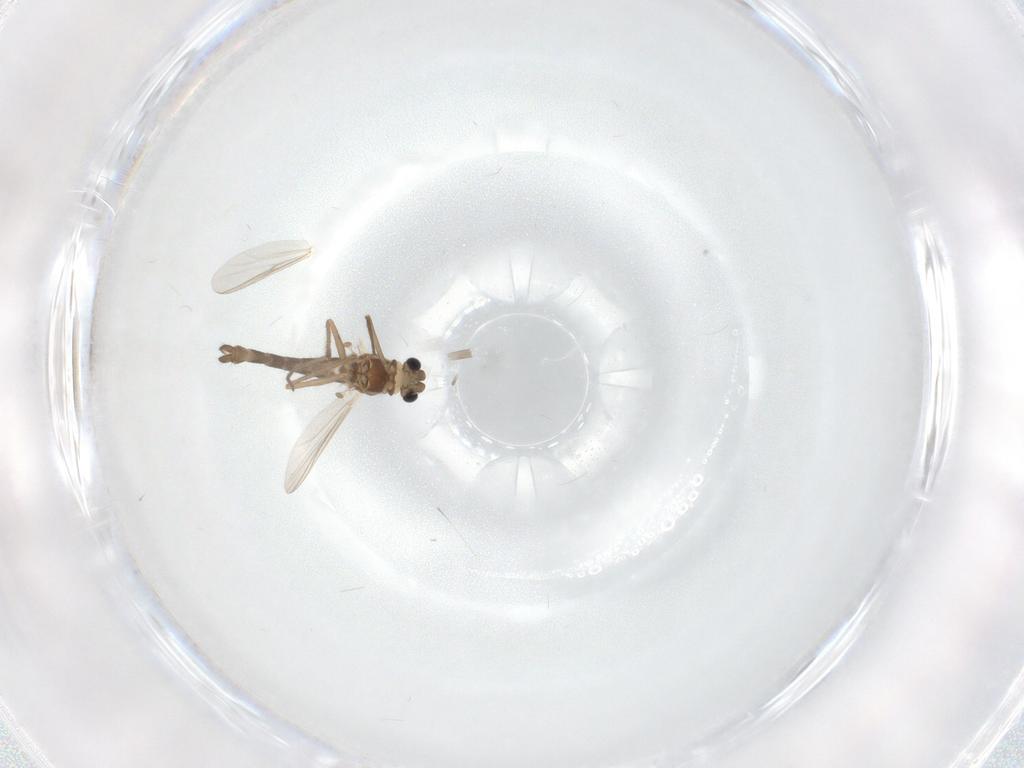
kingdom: Animalia
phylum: Arthropoda
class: Insecta
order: Diptera
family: Chironomidae
